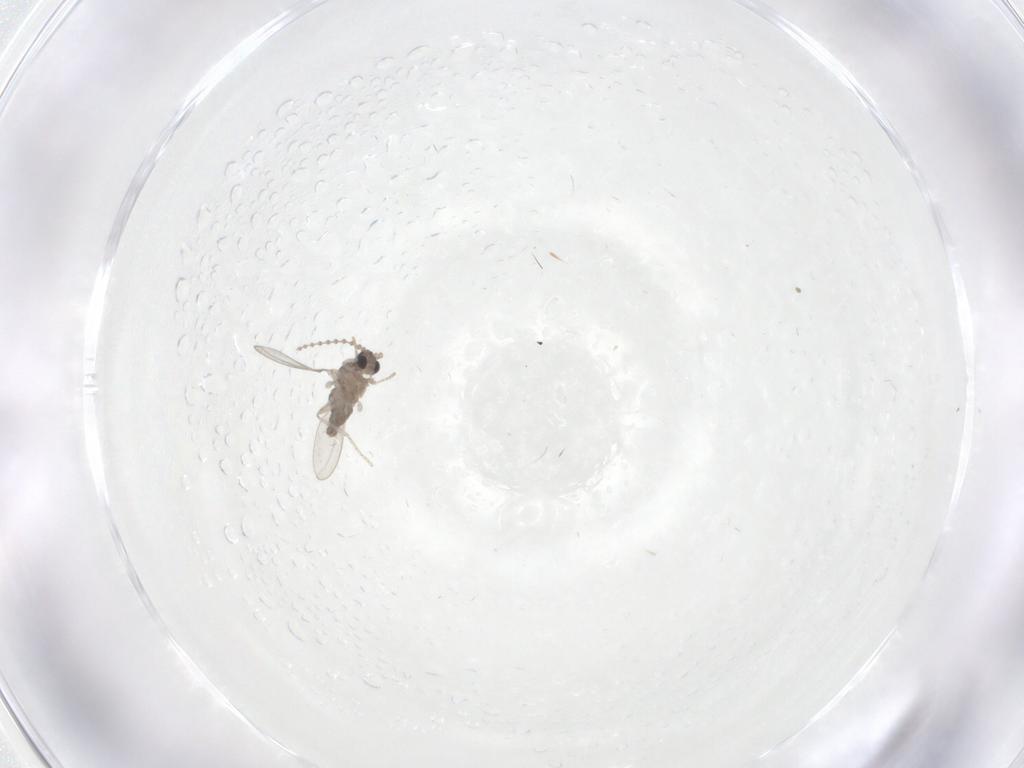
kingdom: Animalia
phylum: Arthropoda
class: Insecta
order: Diptera
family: Cecidomyiidae
